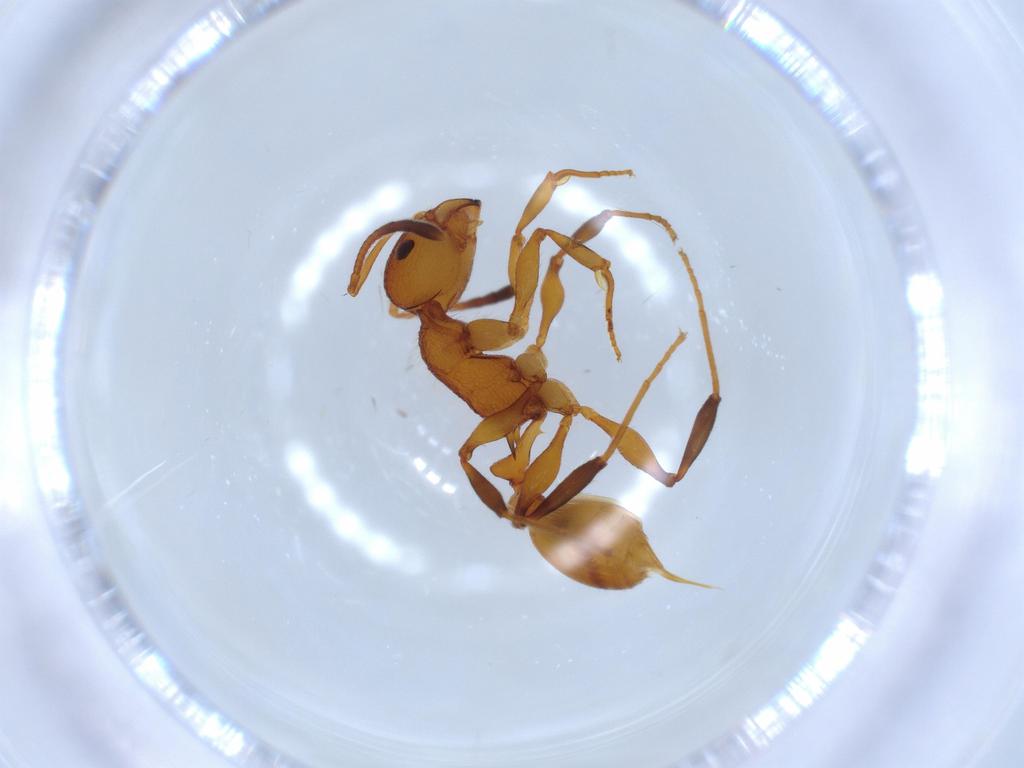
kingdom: Animalia
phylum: Arthropoda
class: Insecta
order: Hymenoptera
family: Formicidae
